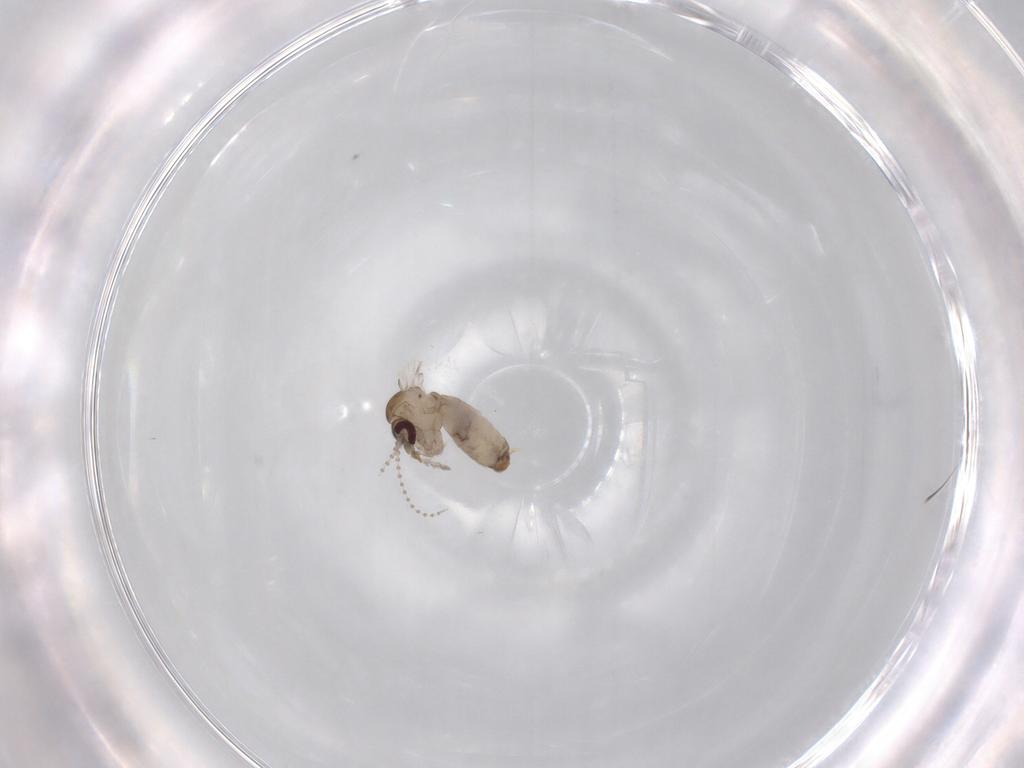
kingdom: Animalia
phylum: Arthropoda
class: Insecta
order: Diptera
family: Psychodidae
